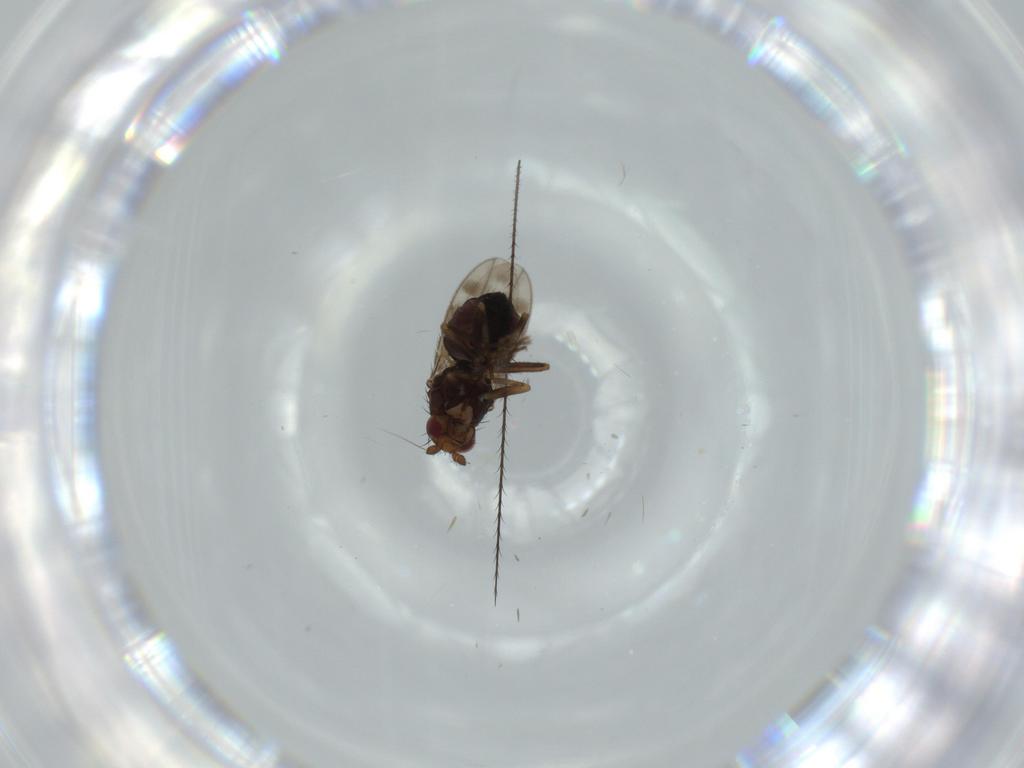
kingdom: Animalia
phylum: Arthropoda
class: Insecta
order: Diptera
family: Sphaeroceridae
